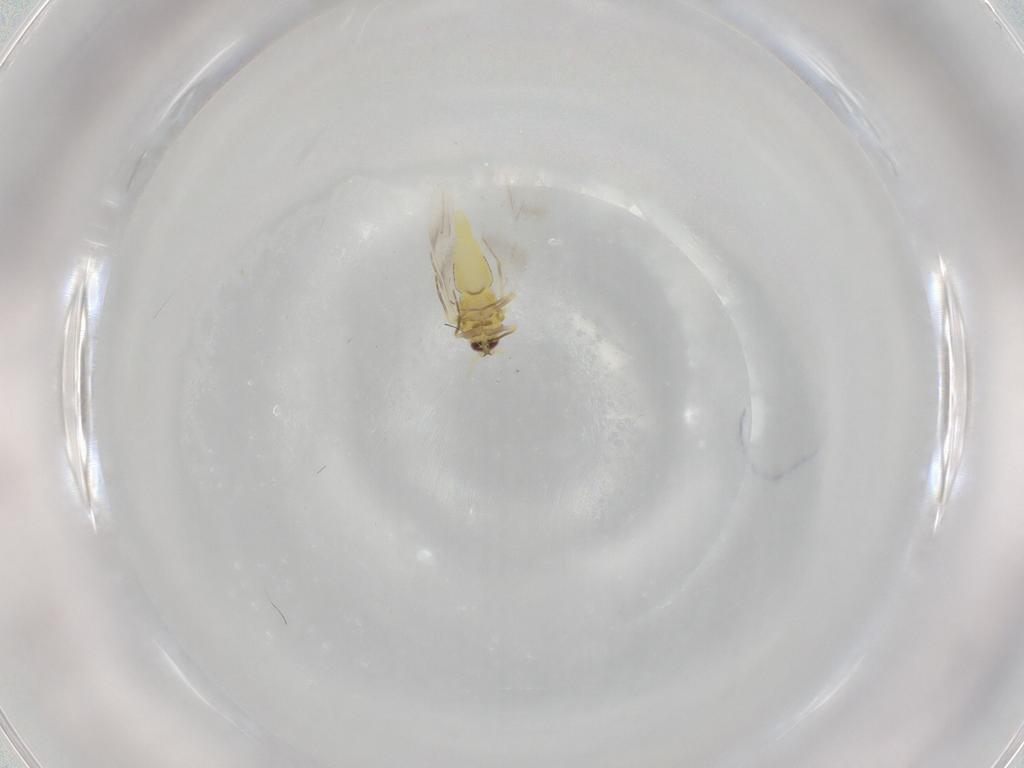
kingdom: Animalia
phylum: Arthropoda
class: Insecta
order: Hemiptera
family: Aleyrodidae
